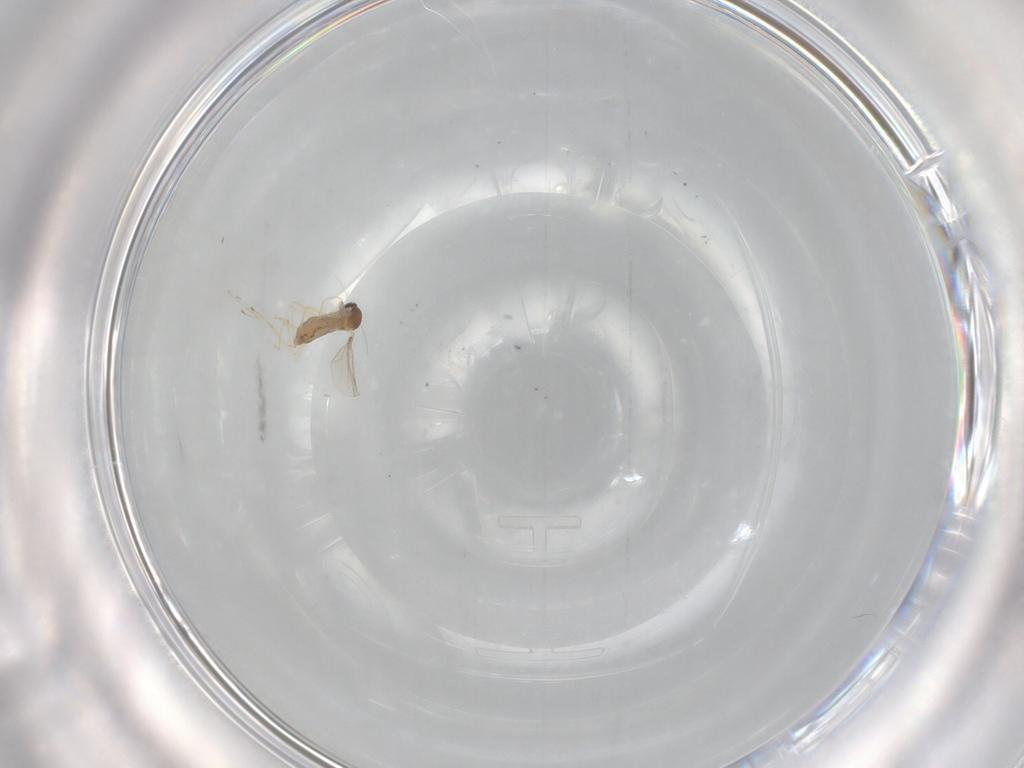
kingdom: Animalia
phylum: Arthropoda
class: Insecta
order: Diptera
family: Cecidomyiidae
